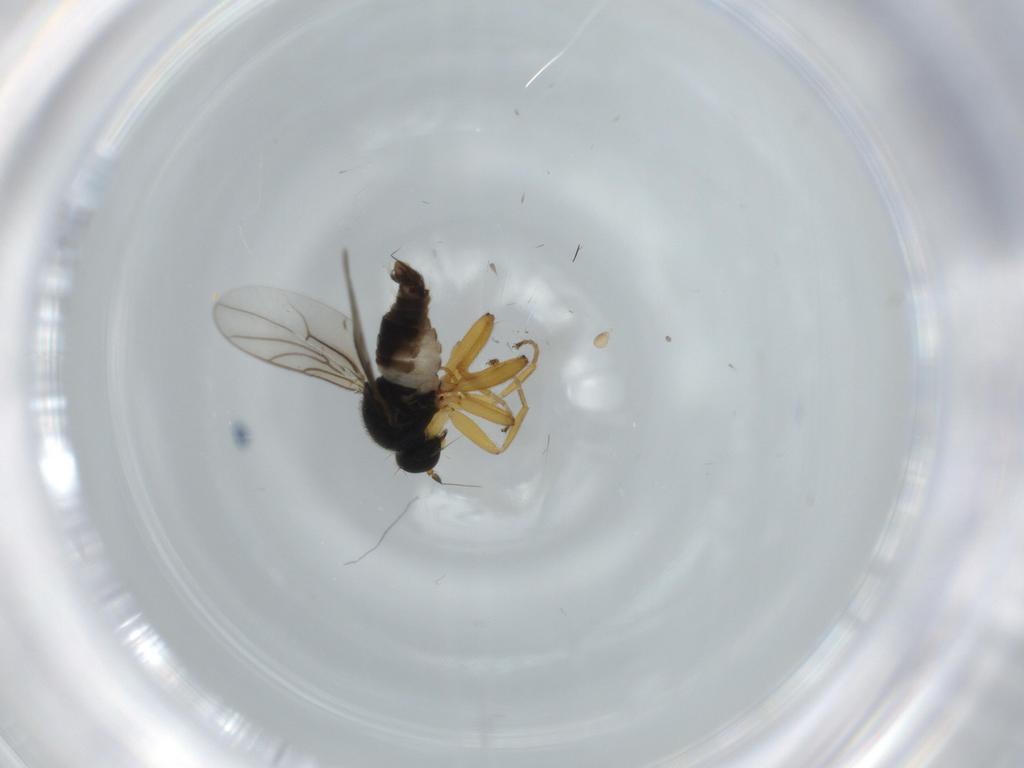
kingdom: Animalia
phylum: Arthropoda
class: Insecta
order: Diptera
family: Hybotidae
